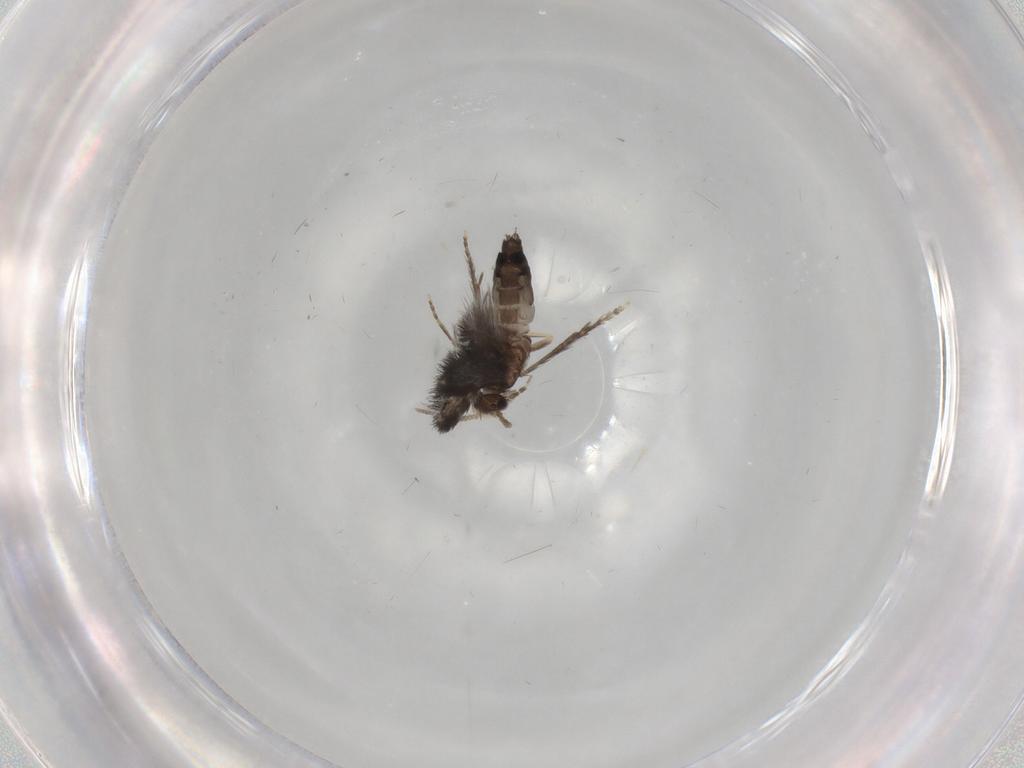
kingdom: Animalia
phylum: Arthropoda
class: Insecta
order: Trichoptera
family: Hydroptilidae
